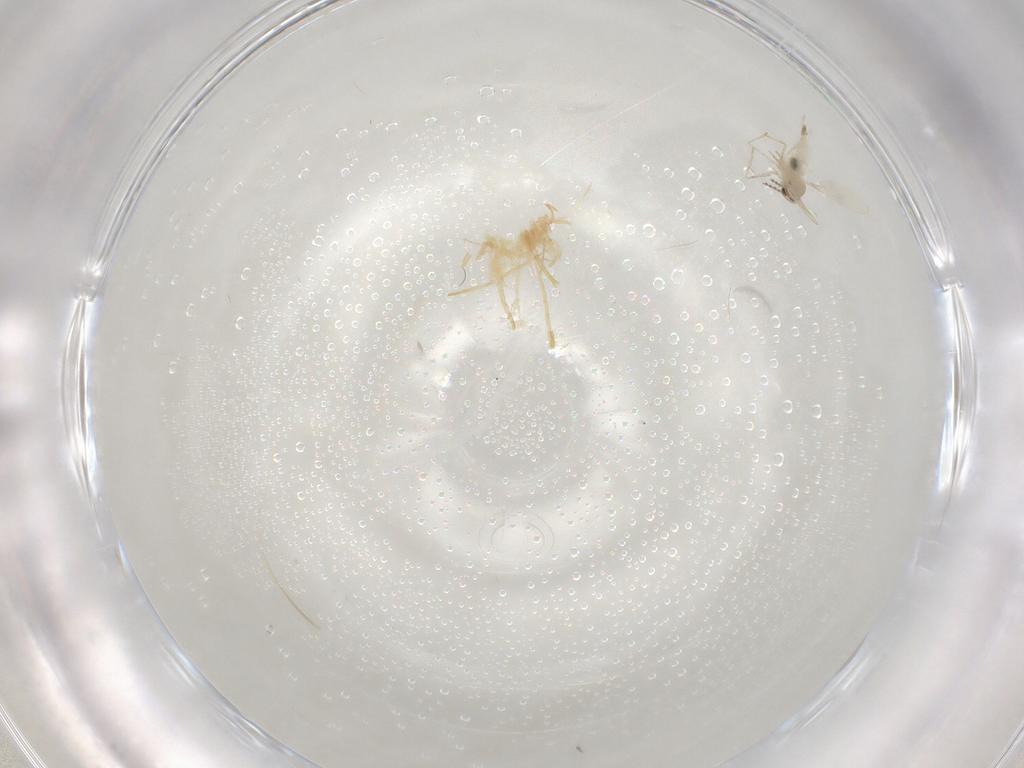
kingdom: Animalia
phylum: Arthropoda
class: Insecta
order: Diptera
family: Cecidomyiidae
